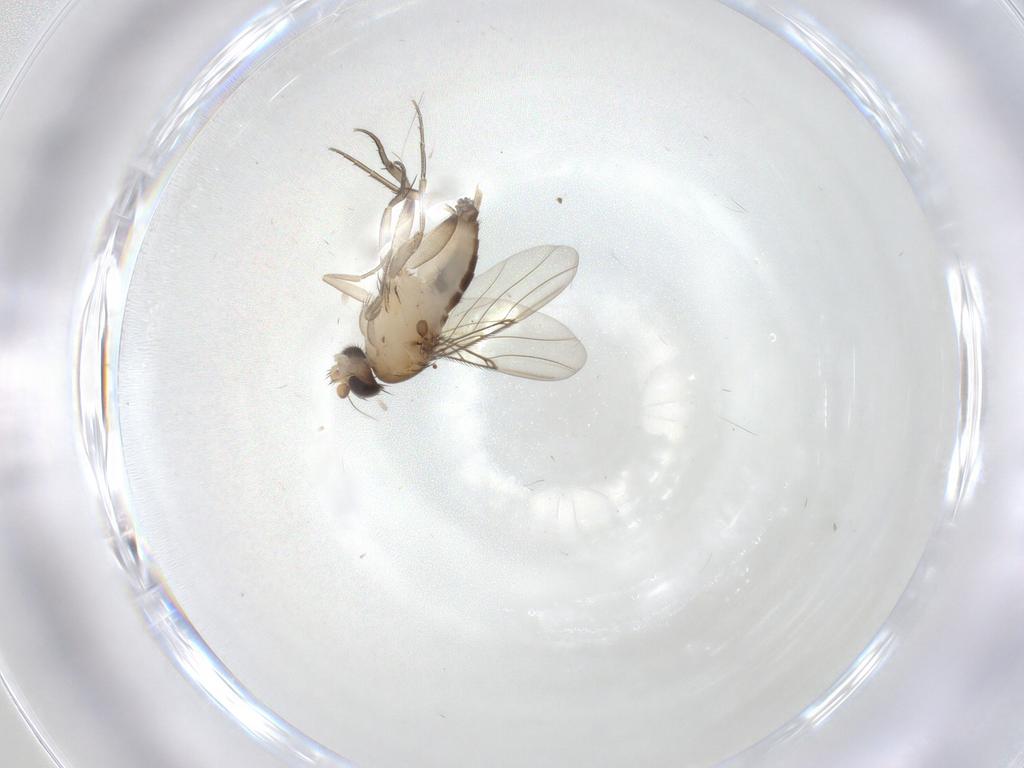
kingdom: Animalia
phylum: Arthropoda
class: Insecta
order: Diptera
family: Phoridae
